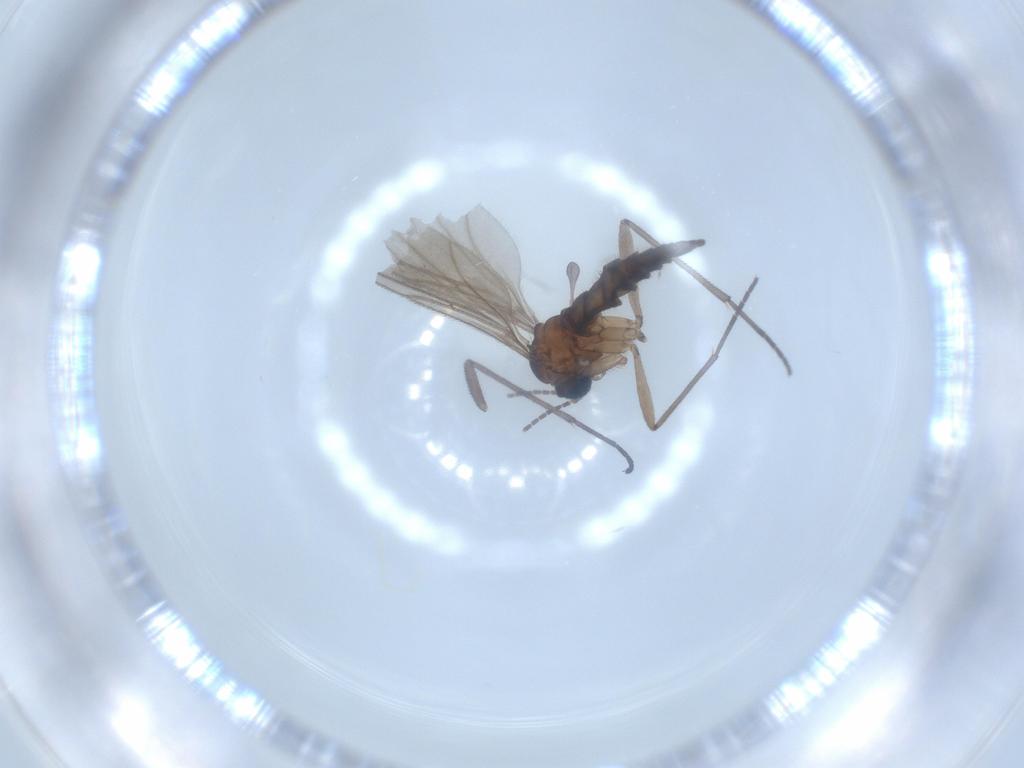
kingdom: Animalia
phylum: Arthropoda
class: Insecta
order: Diptera
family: Sciaridae
